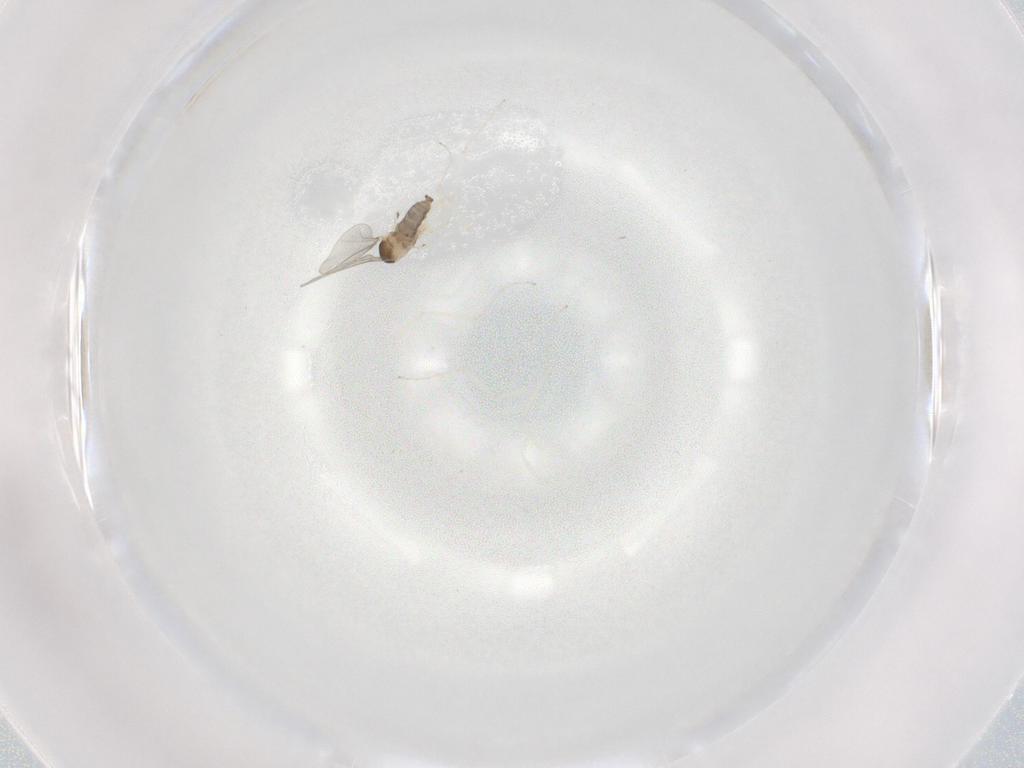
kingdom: Animalia
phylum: Arthropoda
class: Insecta
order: Diptera
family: Cecidomyiidae
